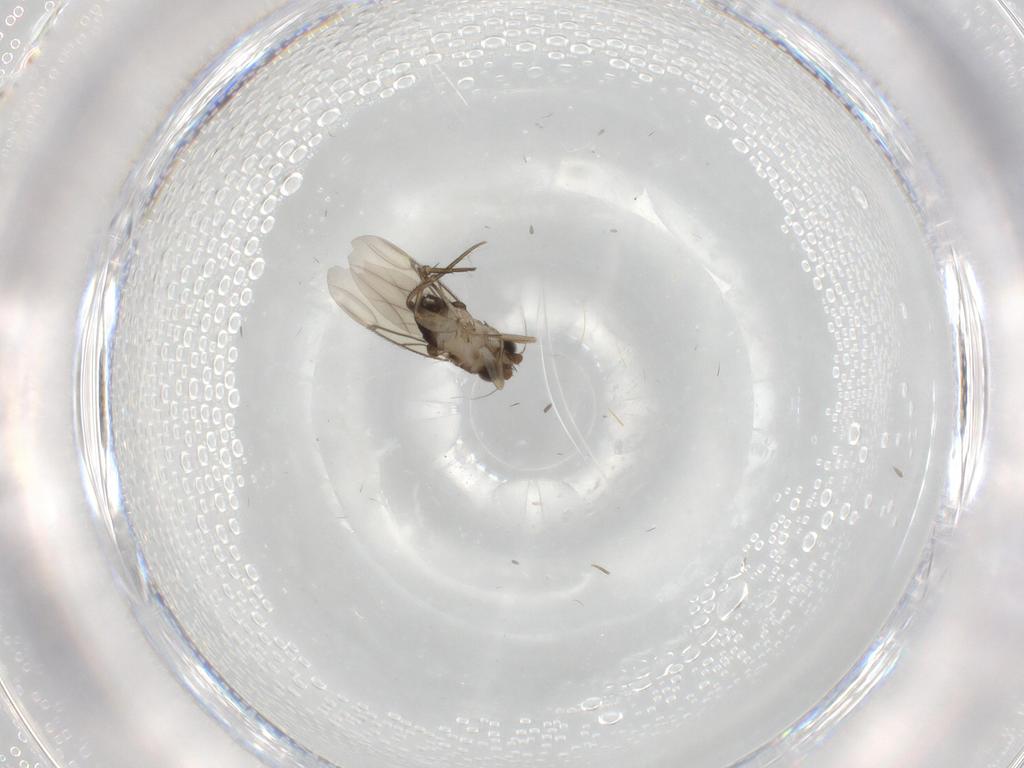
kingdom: Animalia
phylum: Arthropoda
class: Insecta
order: Diptera
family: Phoridae
